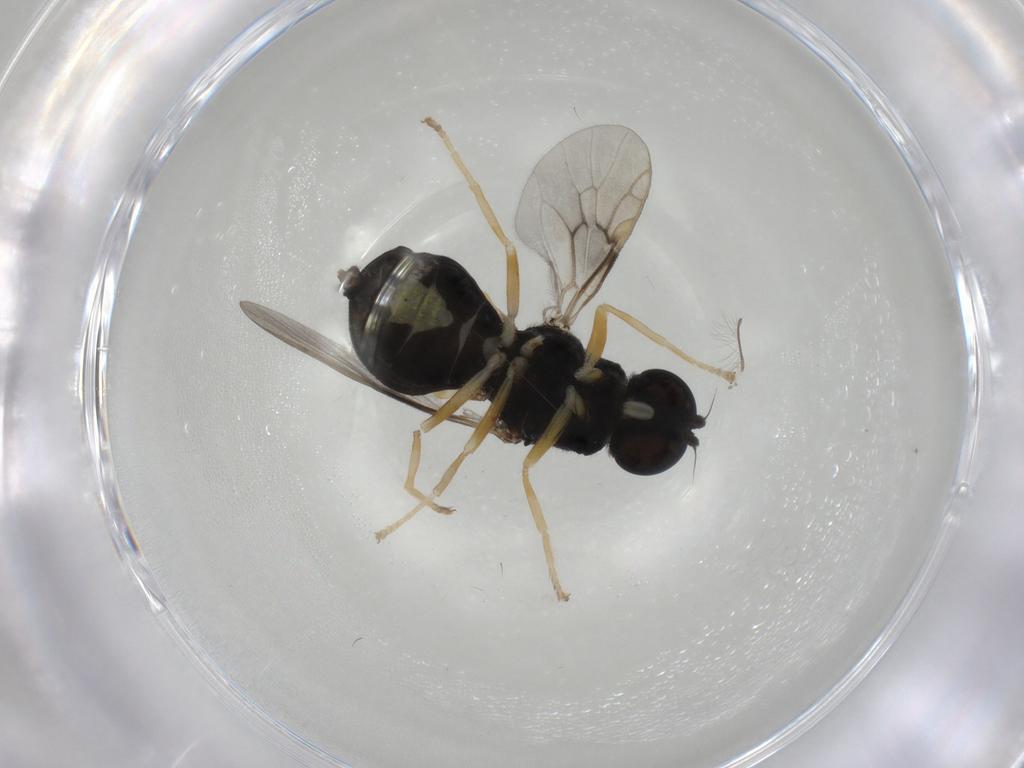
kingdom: Animalia
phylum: Arthropoda
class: Insecta
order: Diptera
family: Stratiomyidae
